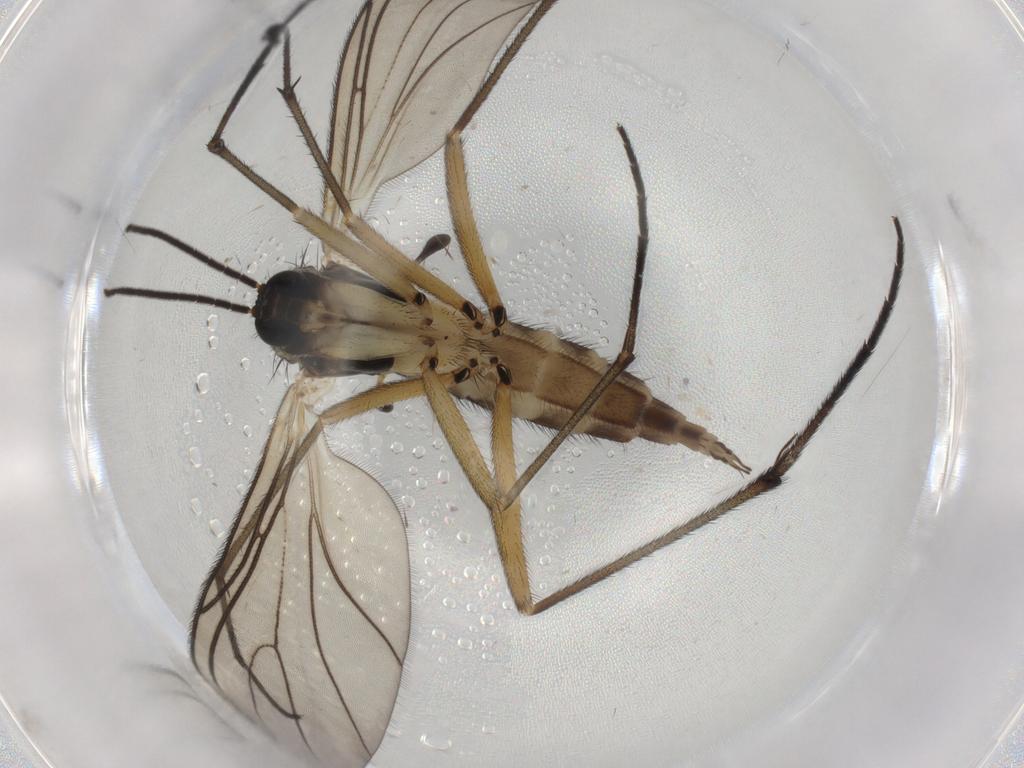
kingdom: Animalia
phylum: Arthropoda
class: Insecta
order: Diptera
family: Sciaridae
